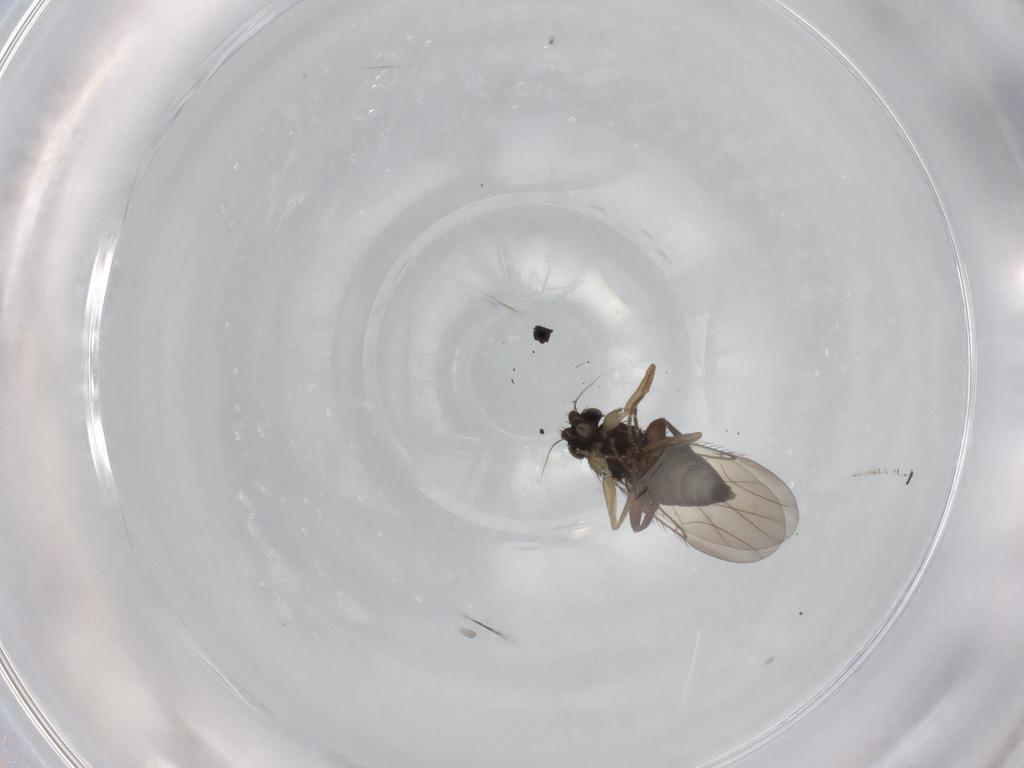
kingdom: Animalia
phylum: Arthropoda
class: Insecta
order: Diptera
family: Phoridae
